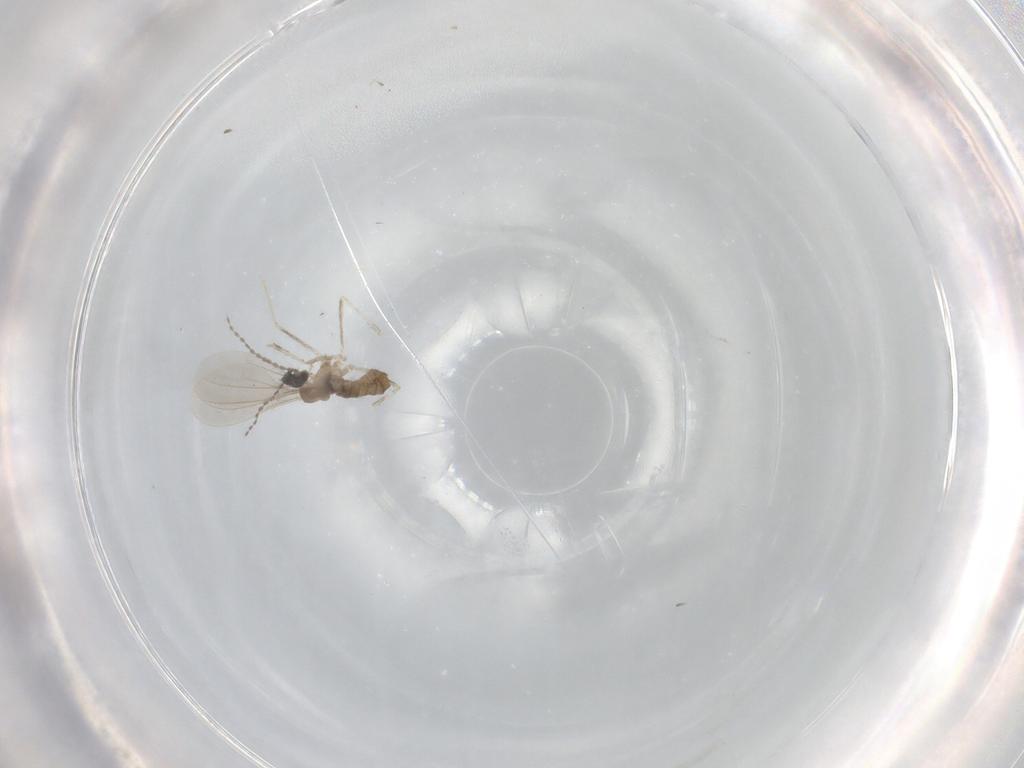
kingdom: Animalia
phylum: Arthropoda
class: Insecta
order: Diptera
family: Cecidomyiidae
